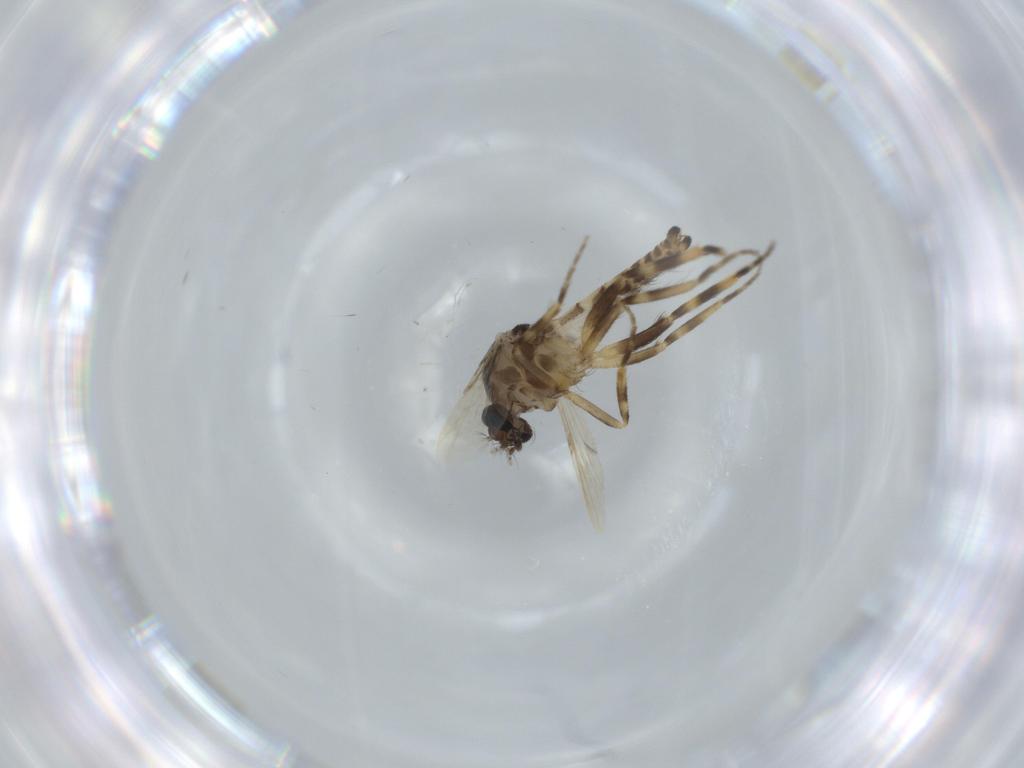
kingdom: Animalia
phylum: Arthropoda
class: Insecta
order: Diptera
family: Ceratopogonidae
